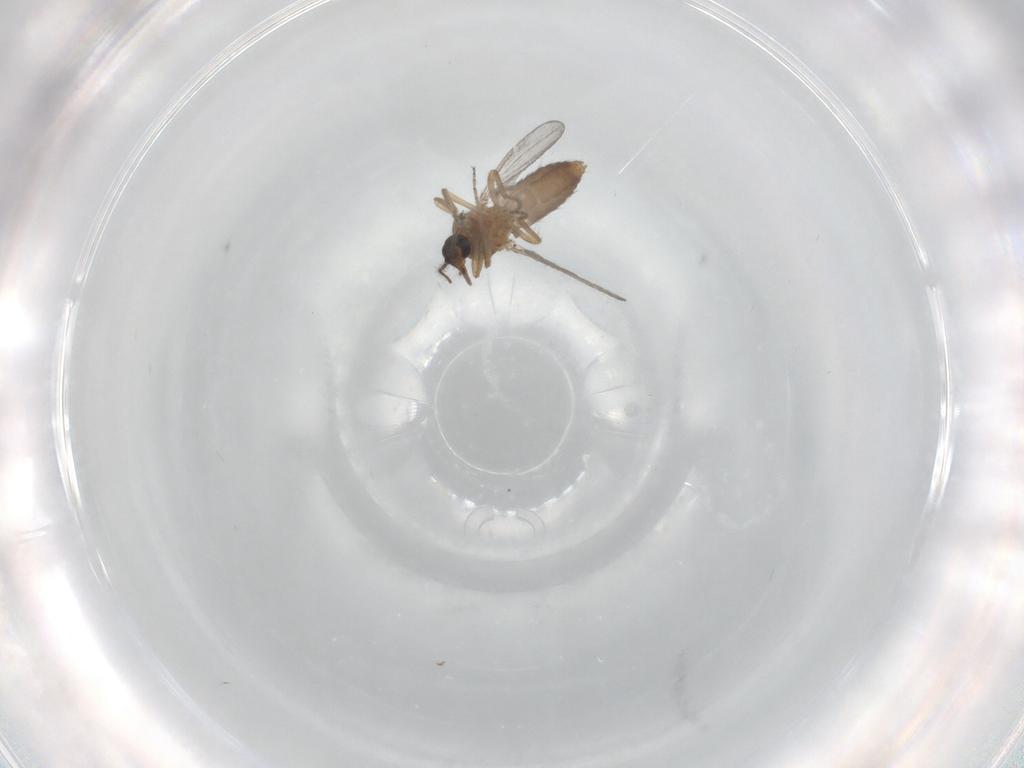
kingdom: Animalia
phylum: Arthropoda
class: Insecta
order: Diptera
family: Ceratopogonidae
